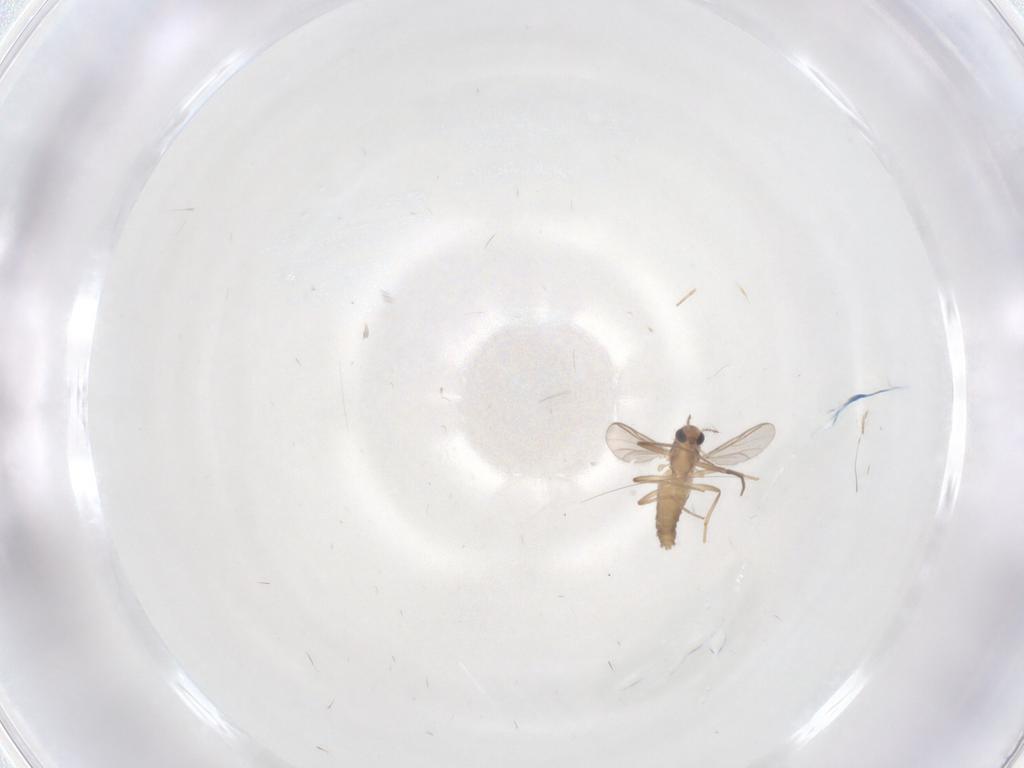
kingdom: Animalia
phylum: Arthropoda
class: Insecta
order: Diptera
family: Chironomidae
